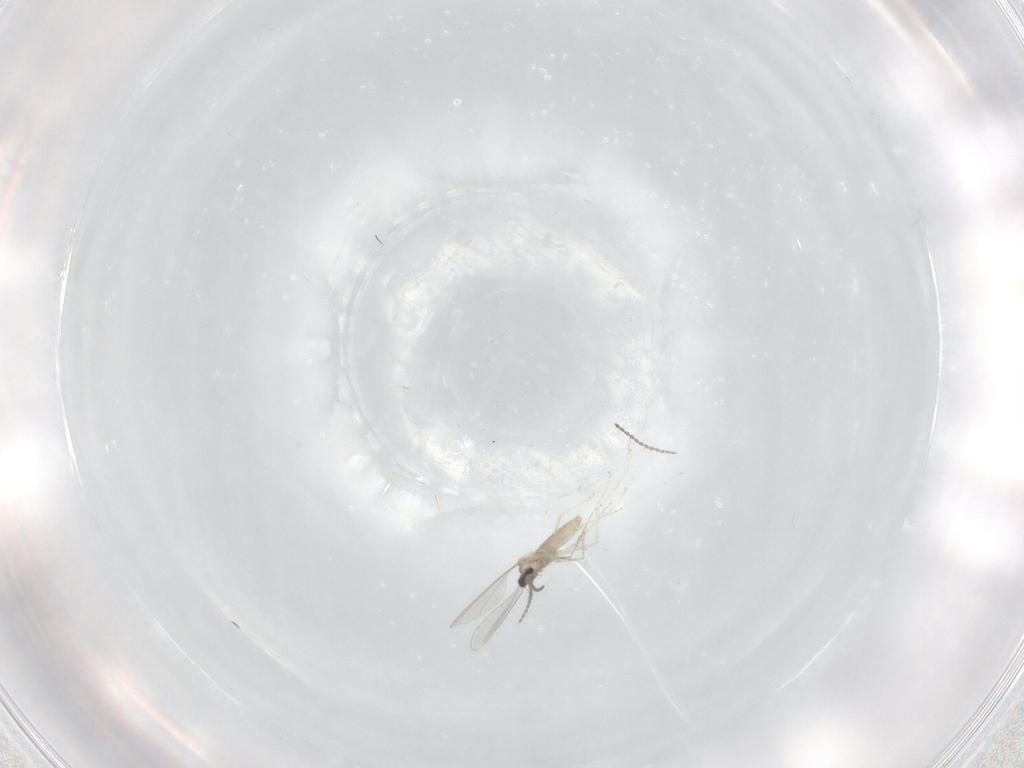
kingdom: Animalia
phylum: Arthropoda
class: Insecta
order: Diptera
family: Cecidomyiidae
